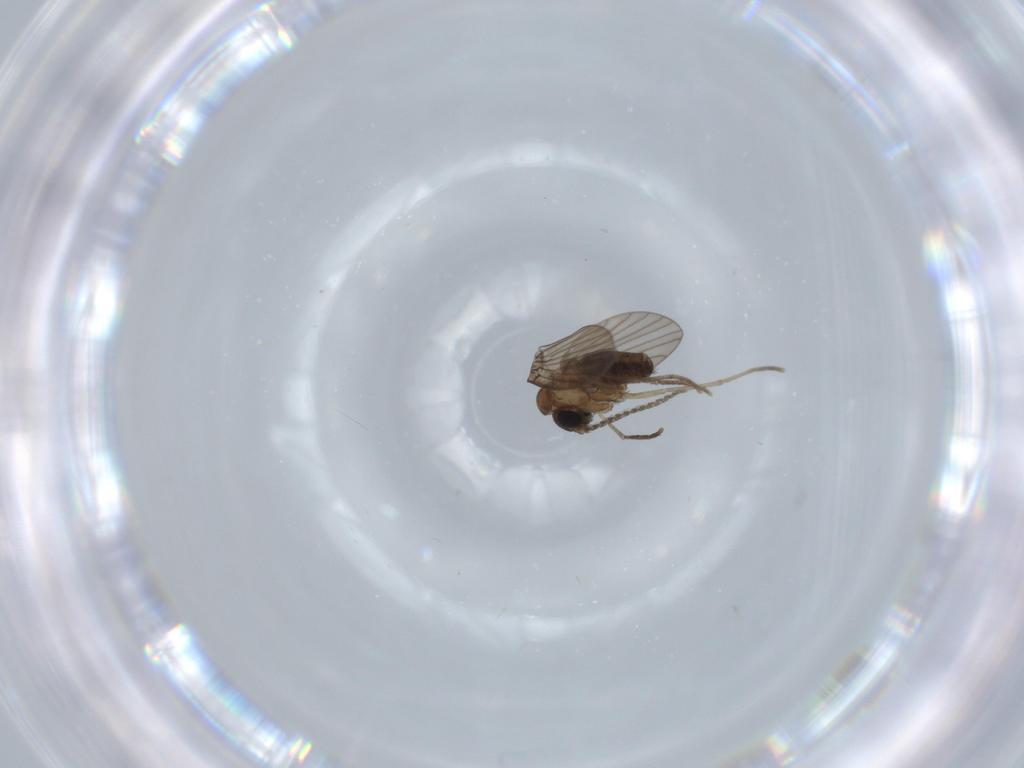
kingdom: Animalia
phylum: Arthropoda
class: Insecta
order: Diptera
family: Psychodidae
